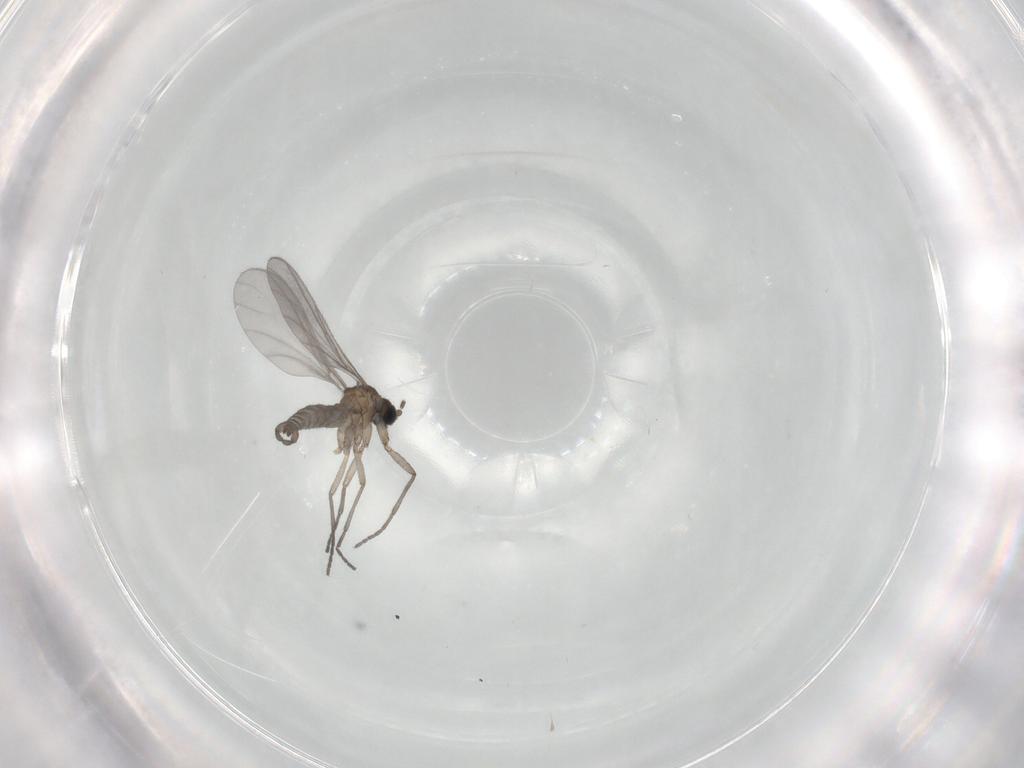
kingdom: Animalia
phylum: Arthropoda
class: Insecta
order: Diptera
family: Sciaridae
